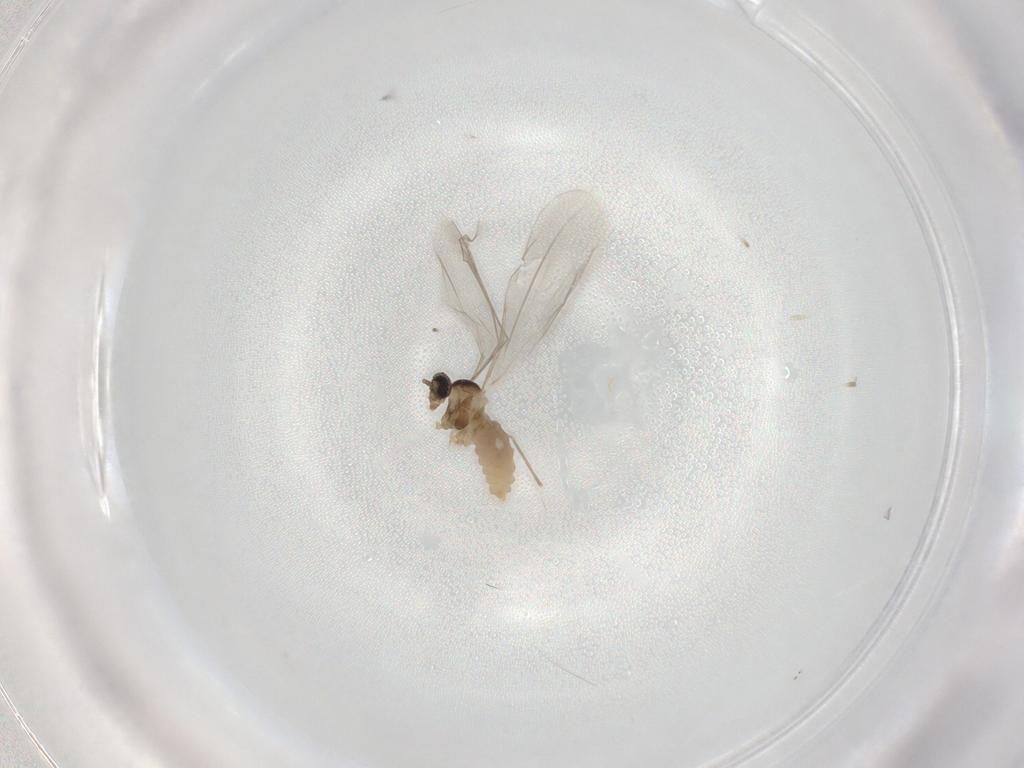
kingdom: Animalia
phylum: Arthropoda
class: Insecta
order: Diptera
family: Cecidomyiidae
